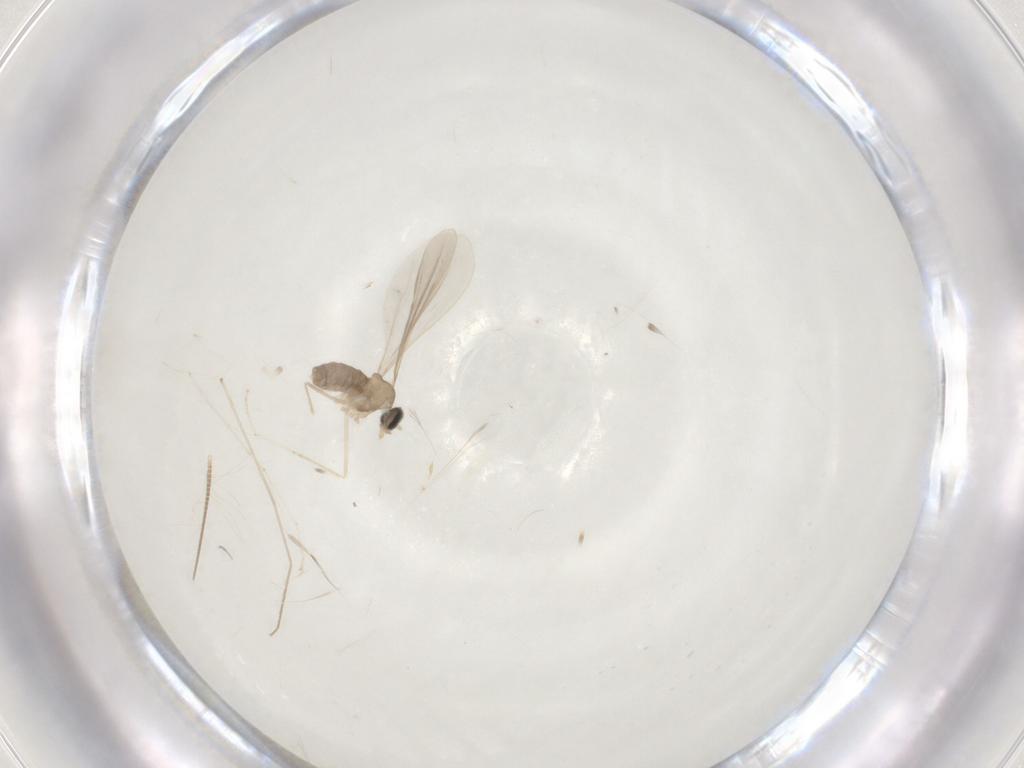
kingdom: Animalia
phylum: Arthropoda
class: Insecta
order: Diptera
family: Cecidomyiidae
